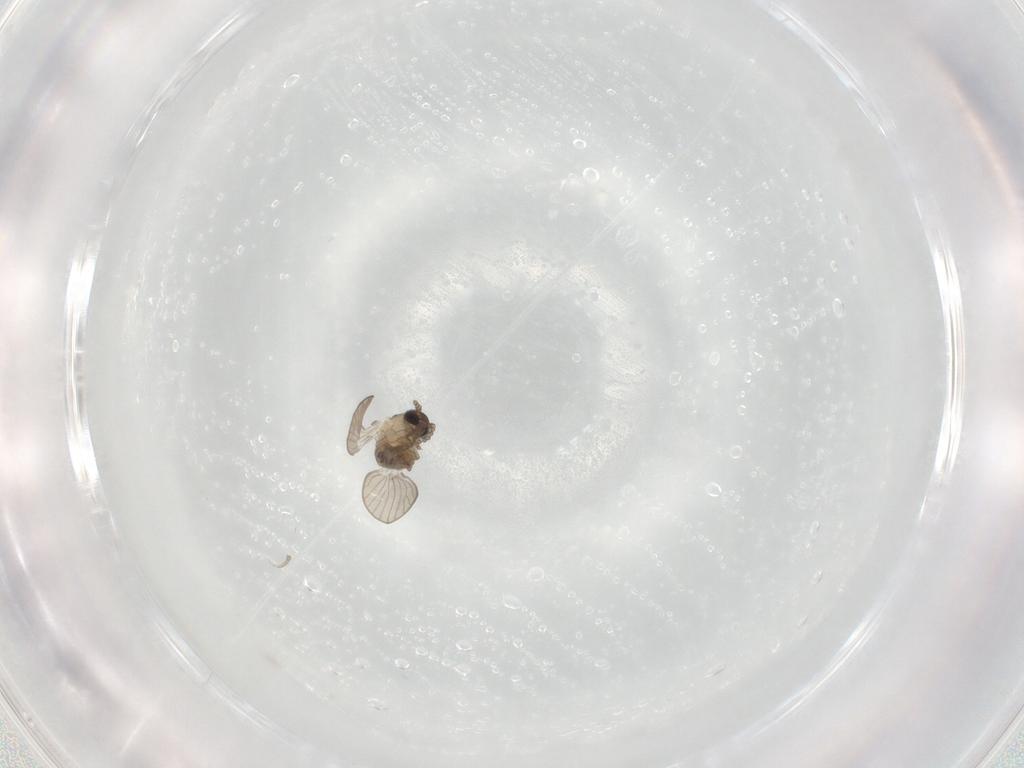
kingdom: Animalia
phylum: Arthropoda
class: Insecta
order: Diptera
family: Psychodidae
